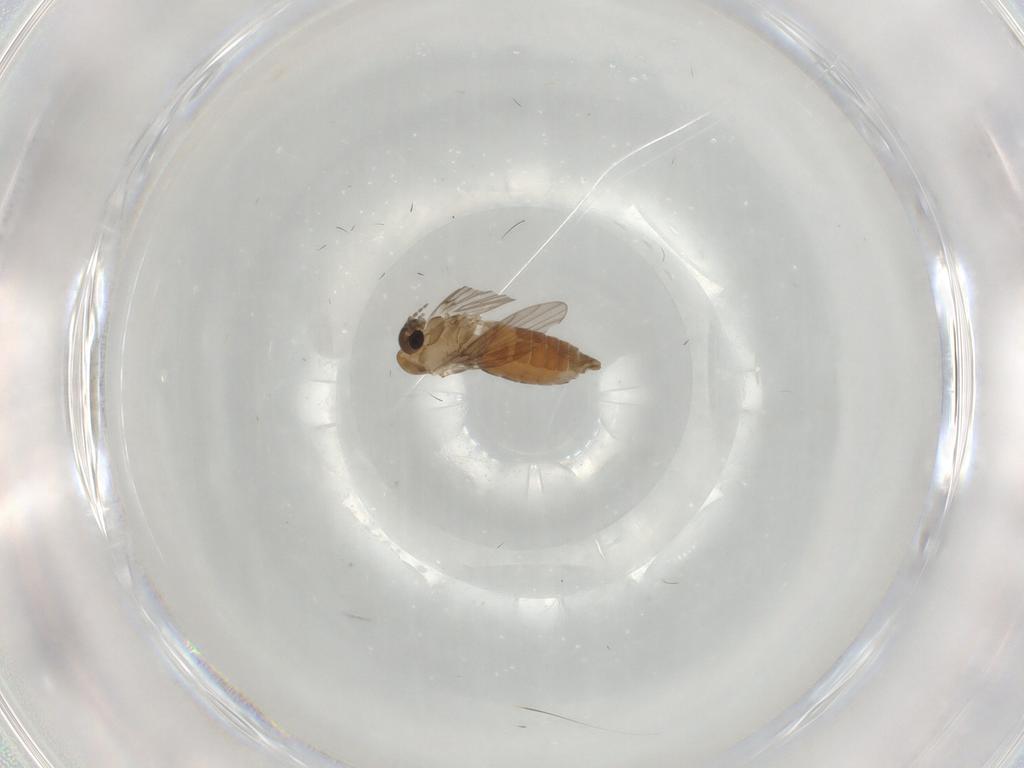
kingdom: Animalia
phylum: Arthropoda
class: Insecta
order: Diptera
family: Psychodidae
